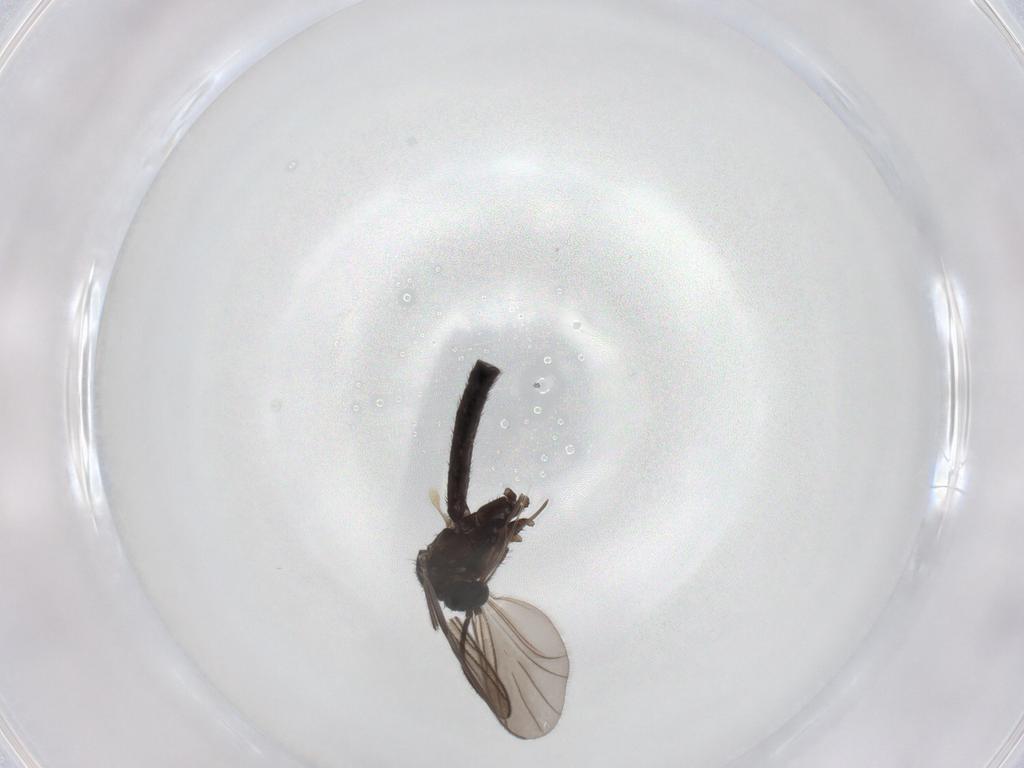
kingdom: Animalia
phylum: Arthropoda
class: Insecta
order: Diptera
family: Keroplatidae
